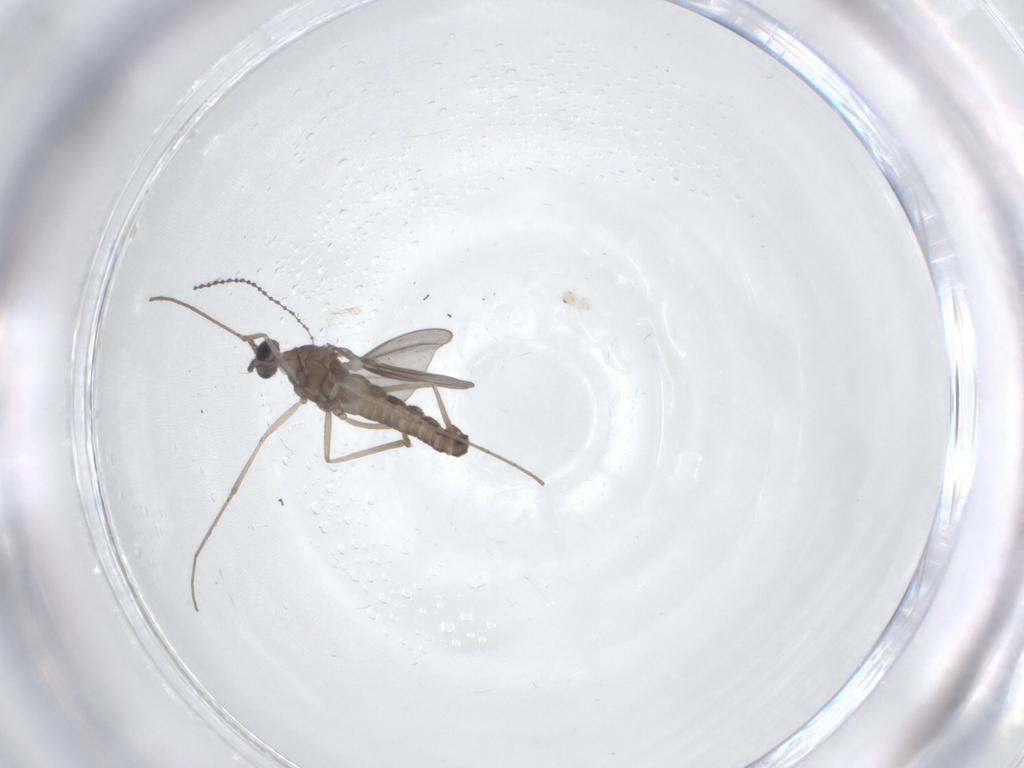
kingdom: Animalia
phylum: Arthropoda
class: Insecta
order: Diptera
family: Cecidomyiidae
